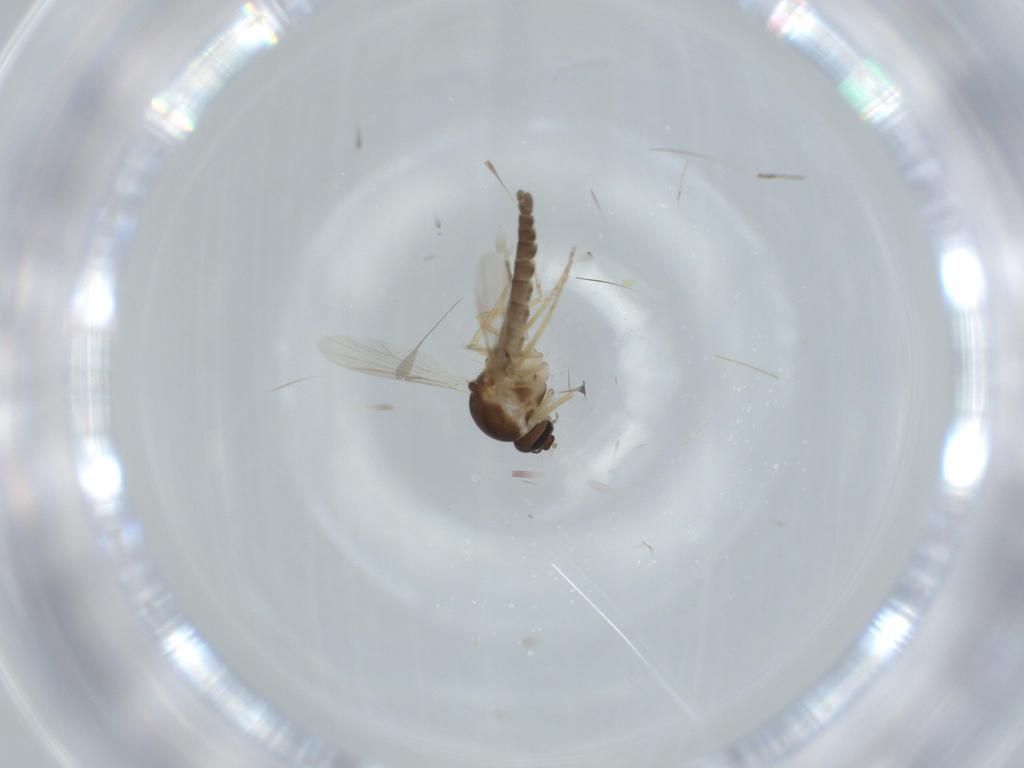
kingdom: Animalia
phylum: Arthropoda
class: Insecta
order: Diptera
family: Ceratopogonidae
